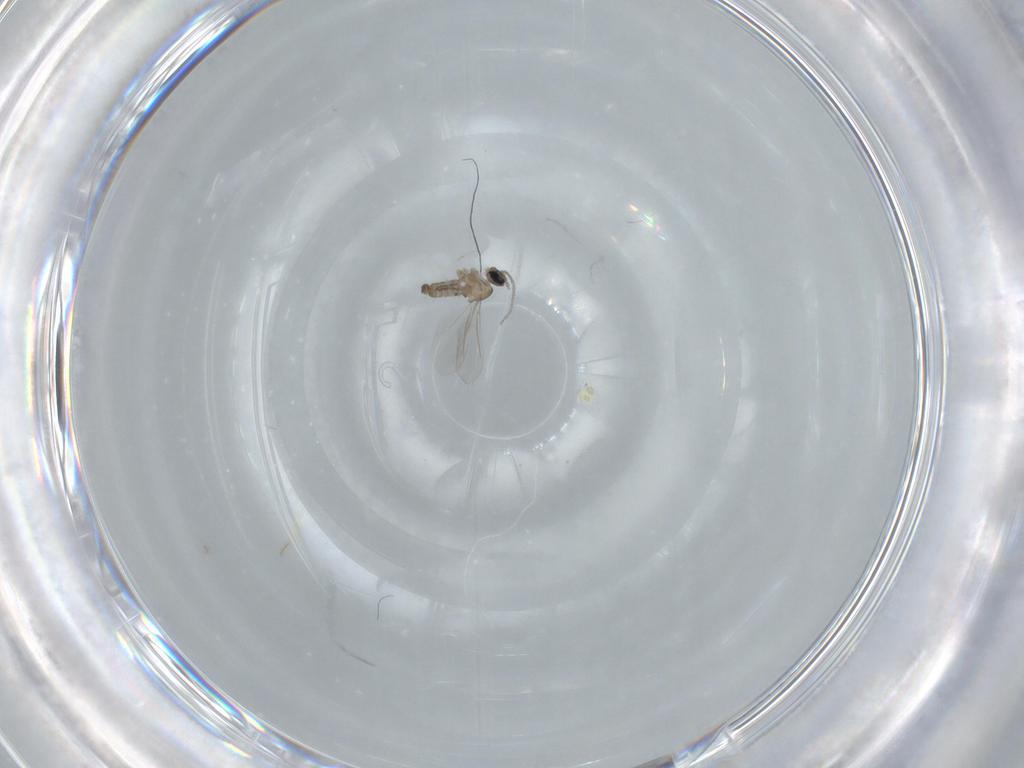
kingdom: Animalia
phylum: Arthropoda
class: Insecta
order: Diptera
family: Cecidomyiidae
